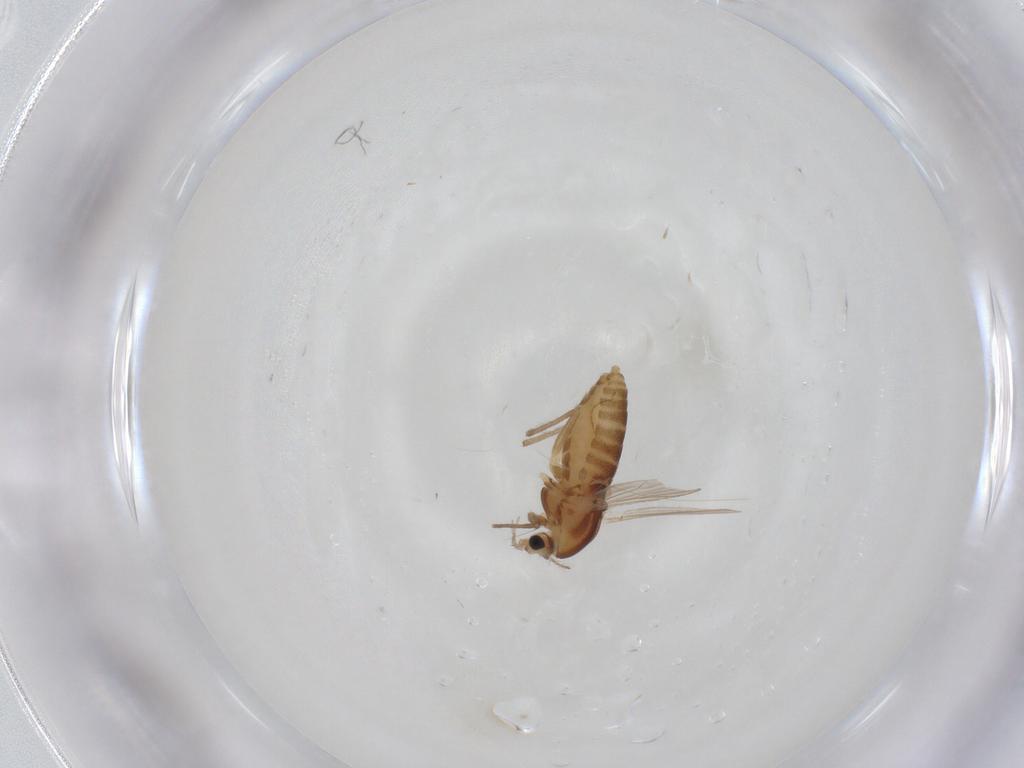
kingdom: Animalia
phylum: Arthropoda
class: Insecta
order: Diptera
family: Chironomidae
